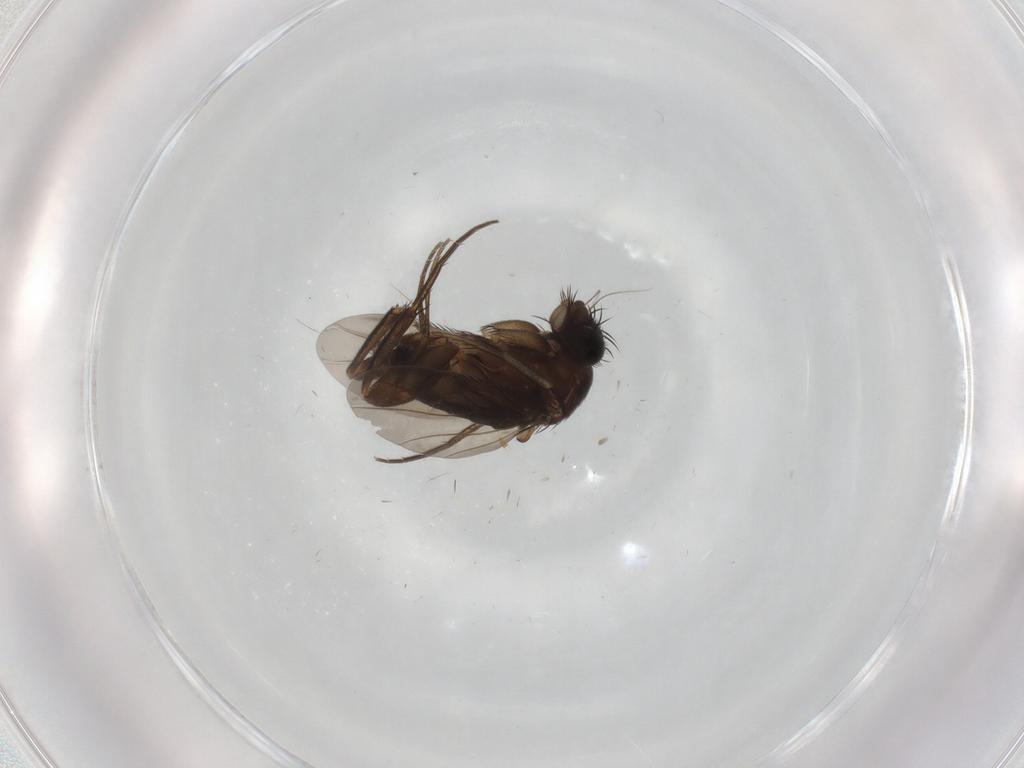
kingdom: Animalia
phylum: Arthropoda
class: Insecta
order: Diptera
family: Phoridae
